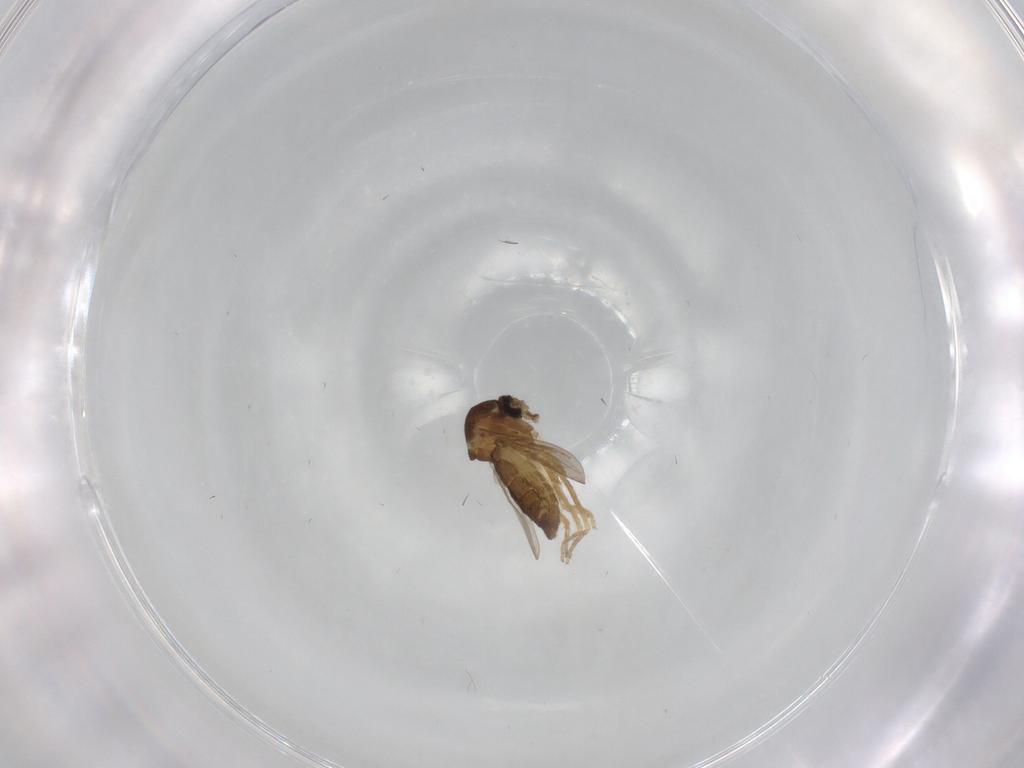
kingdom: Animalia
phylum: Arthropoda
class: Insecta
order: Diptera
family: Ceratopogonidae
